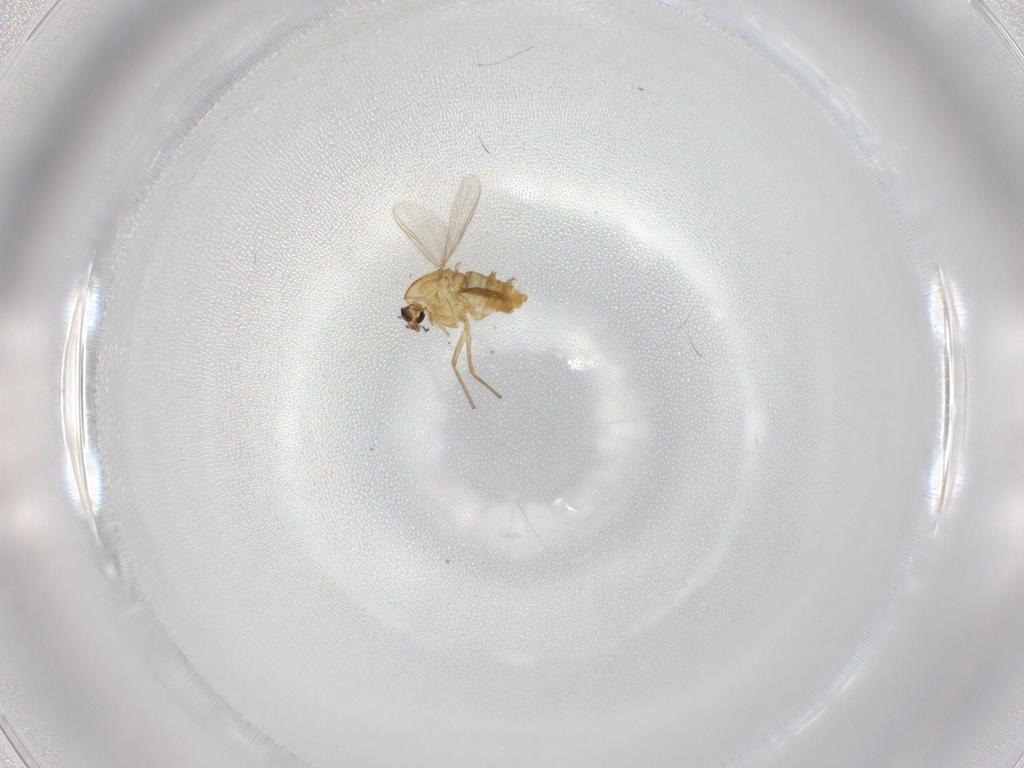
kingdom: Animalia
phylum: Arthropoda
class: Insecta
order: Diptera
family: Chironomidae
